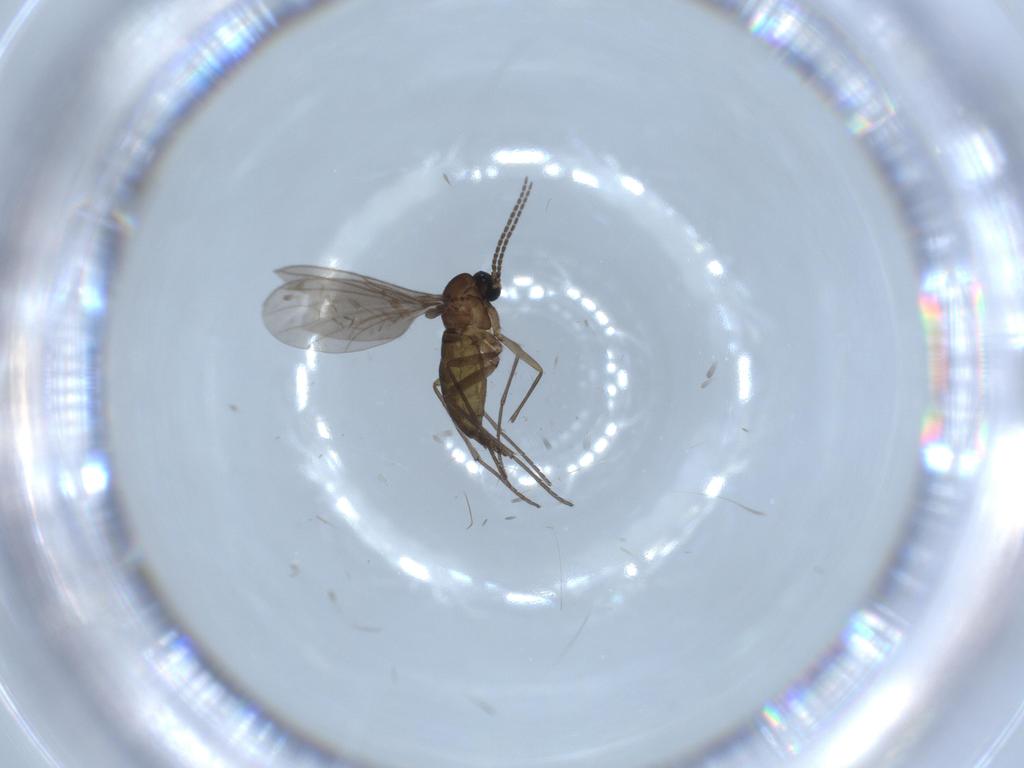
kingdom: Animalia
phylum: Arthropoda
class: Insecta
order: Diptera
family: Sciaridae
